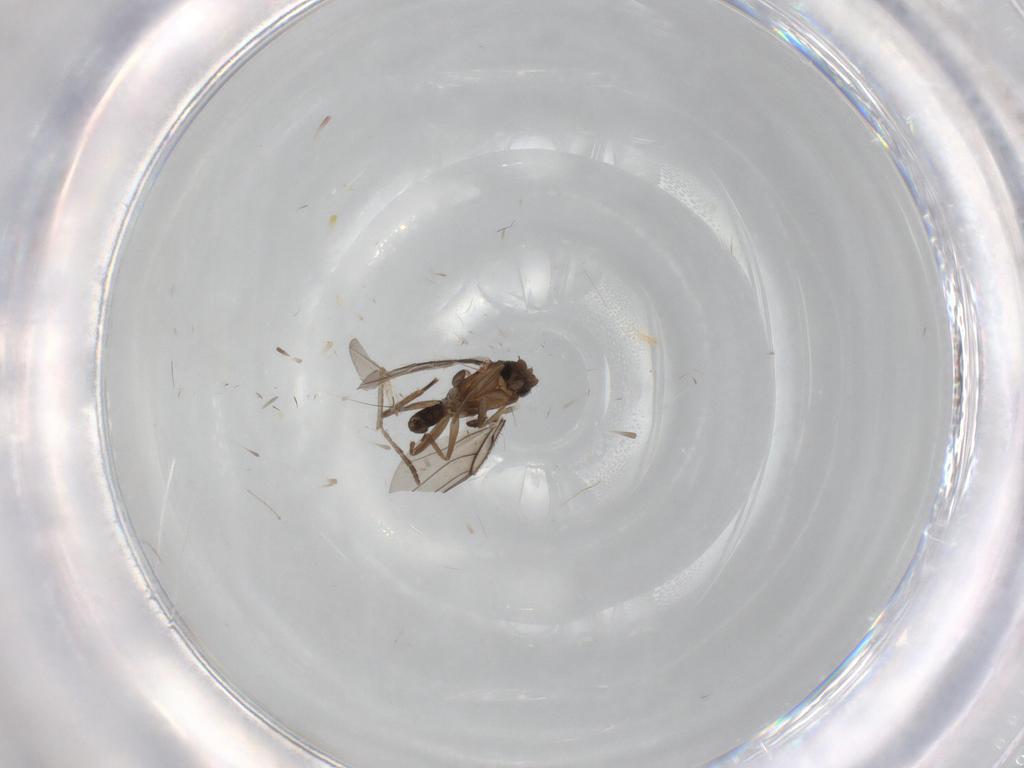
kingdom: Animalia
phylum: Arthropoda
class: Insecta
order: Diptera
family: Phoridae
